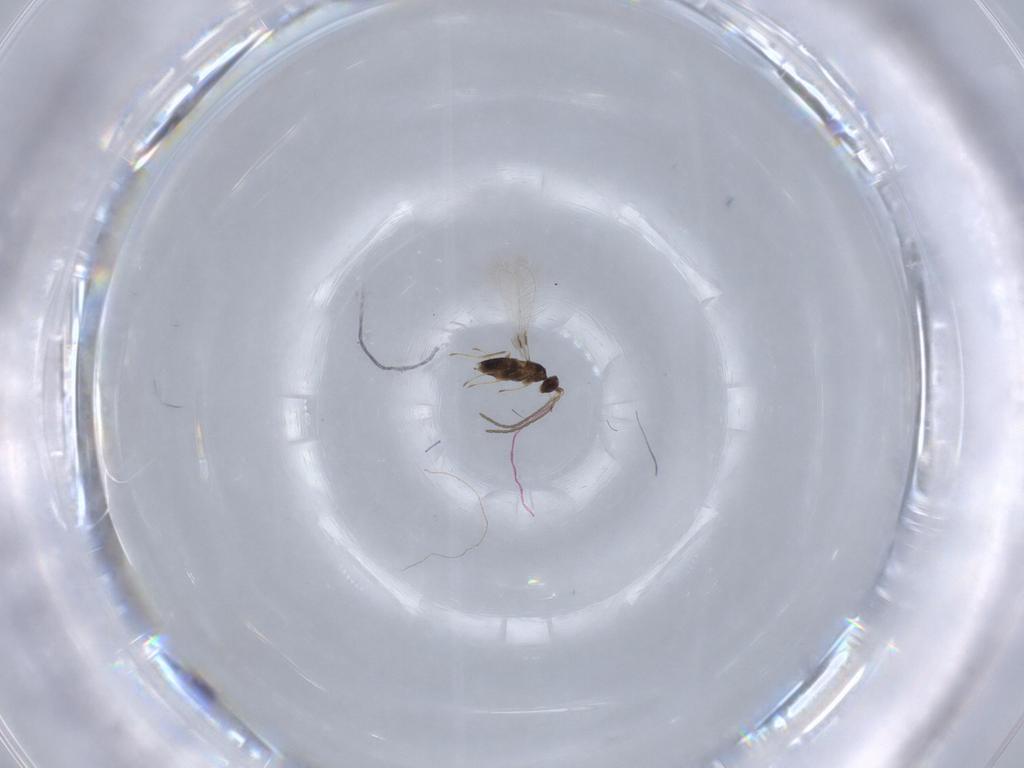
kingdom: Animalia
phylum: Arthropoda
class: Insecta
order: Hymenoptera
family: Mymaridae
